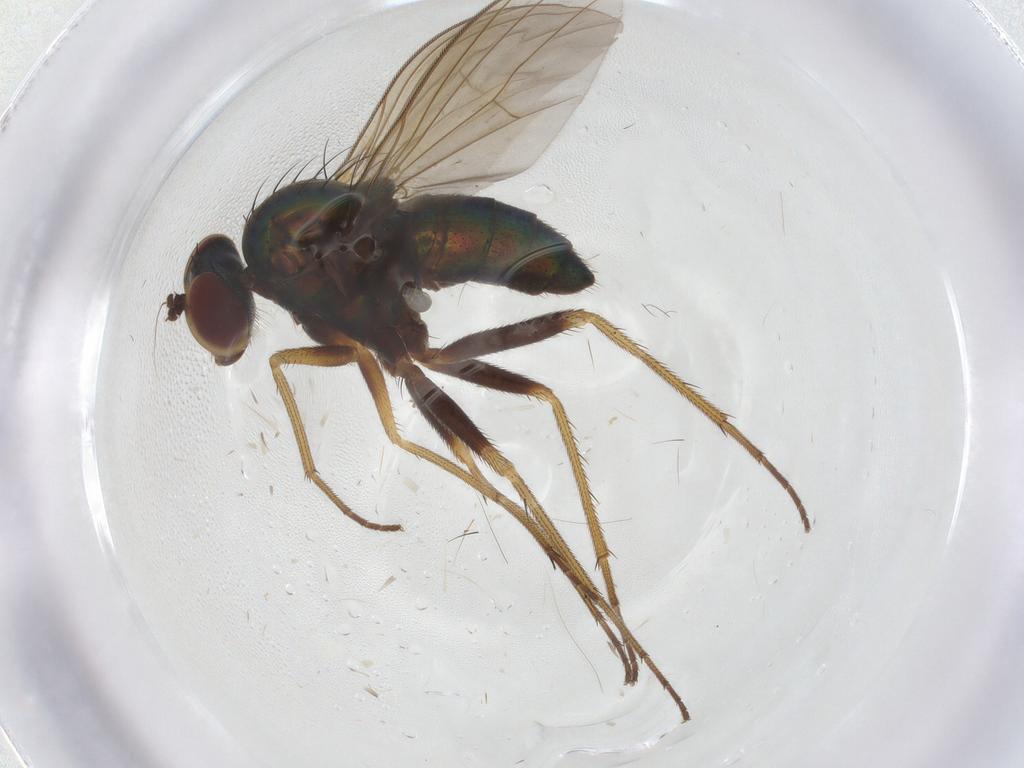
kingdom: Animalia
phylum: Arthropoda
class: Insecta
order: Diptera
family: Dolichopodidae
